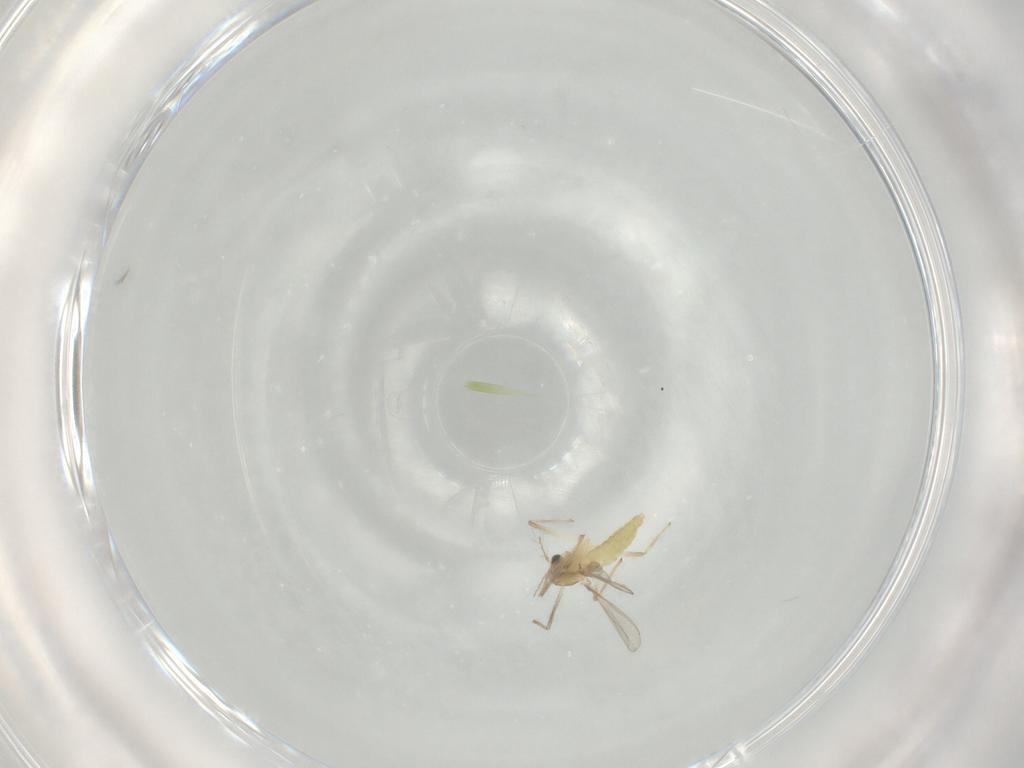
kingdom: Animalia
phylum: Arthropoda
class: Insecta
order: Diptera
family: Chironomidae
